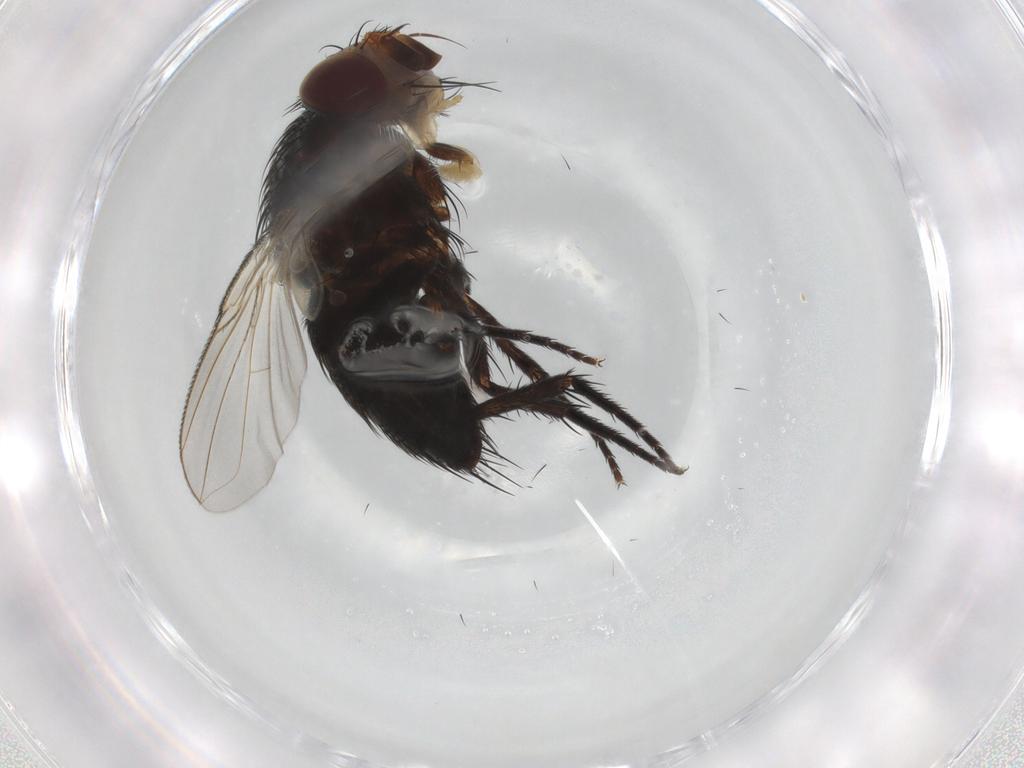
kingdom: Animalia
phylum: Arthropoda
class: Insecta
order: Diptera
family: Tachinidae
